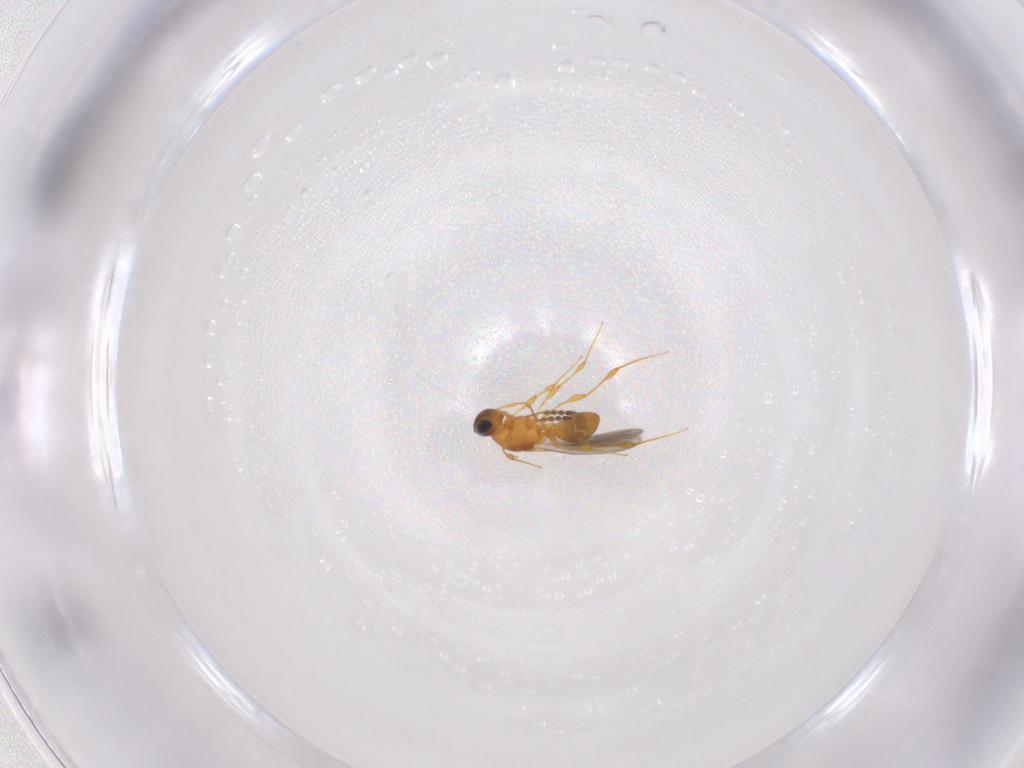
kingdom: Animalia
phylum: Arthropoda
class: Insecta
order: Hymenoptera
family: Platygastridae
